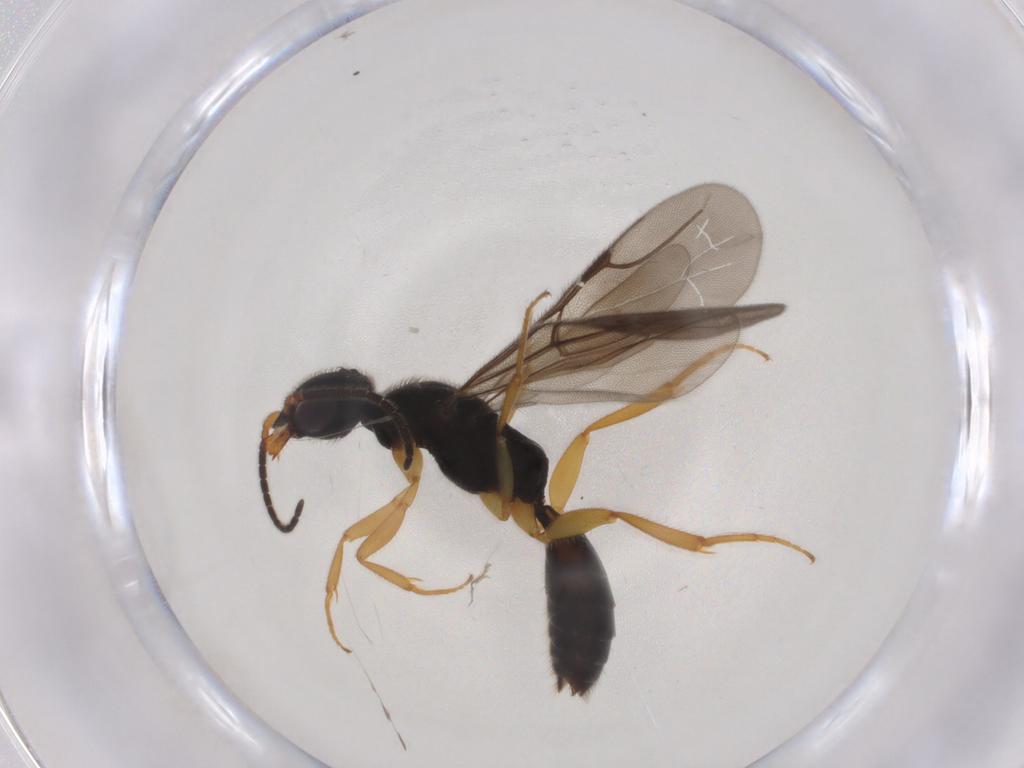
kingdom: Animalia
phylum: Arthropoda
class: Insecta
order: Hymenoptera
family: Bethylidae
